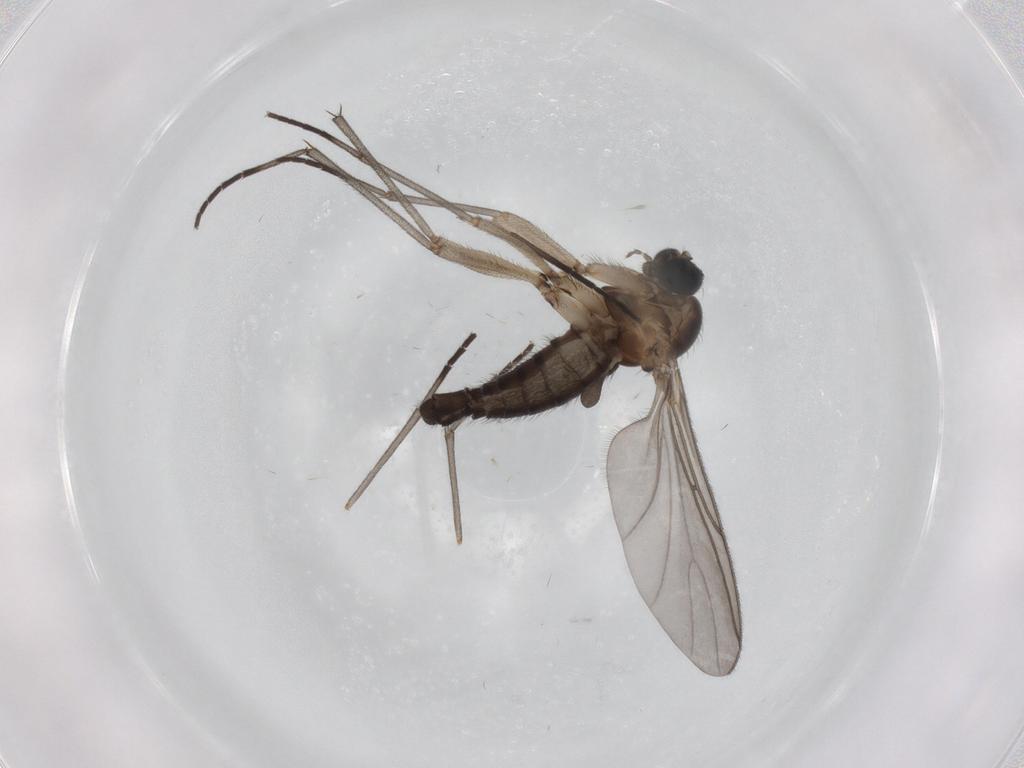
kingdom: Animalia
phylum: Arthropoda
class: Insecta
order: Diptera
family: Sciaridae
